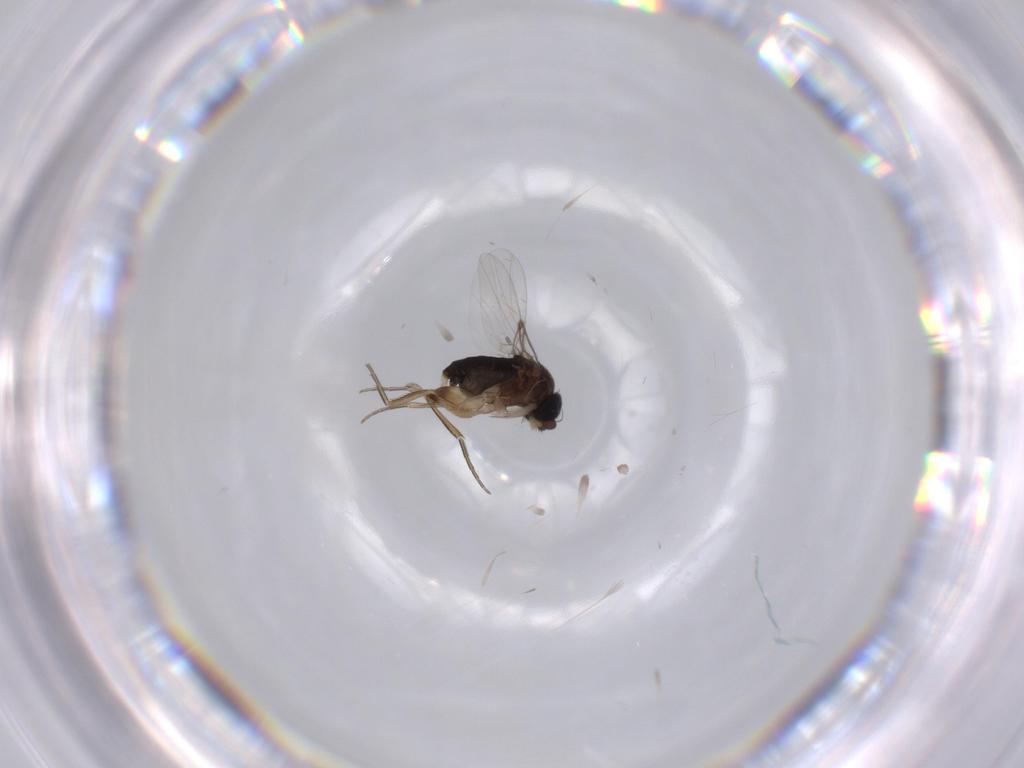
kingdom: Animalia
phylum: Arthropoda
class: Insecta
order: Diptera
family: Phoridae
